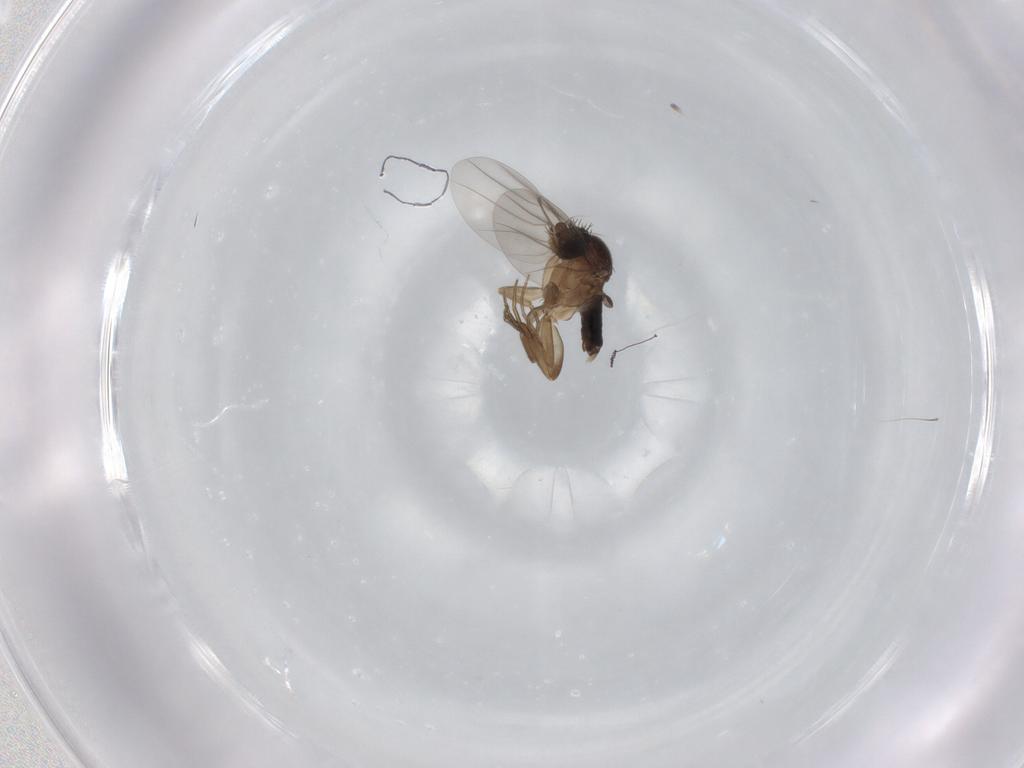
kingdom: Animalia
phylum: Arthropoda
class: Insecta
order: Diptera
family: Phoridae
